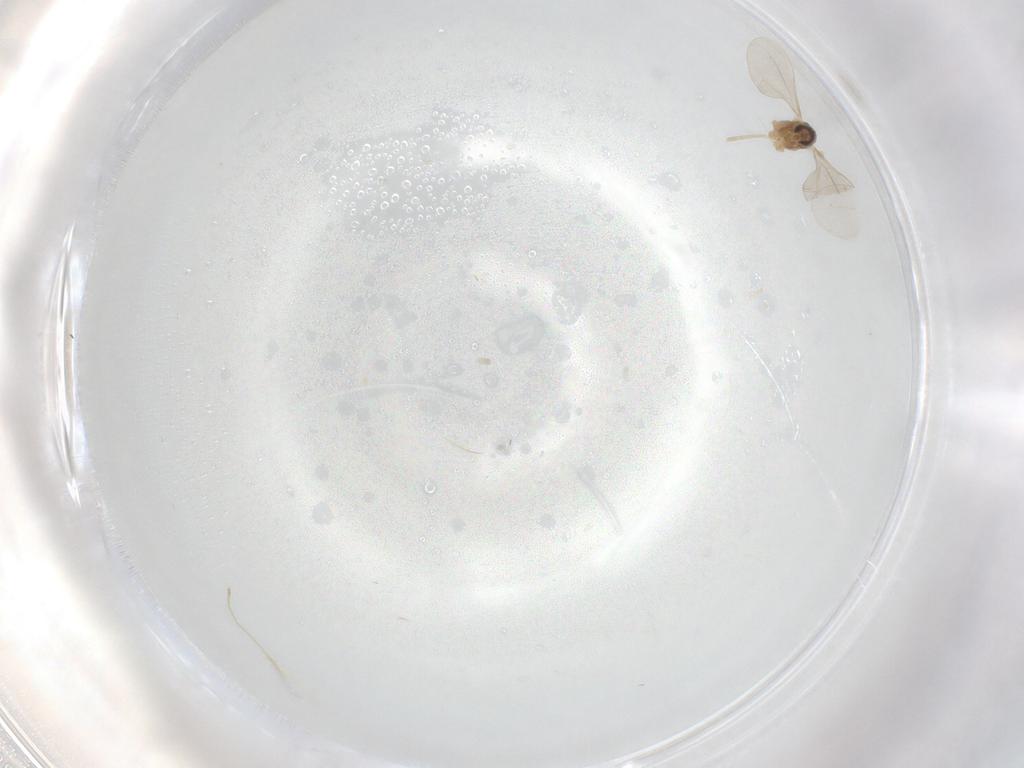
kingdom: Animalia
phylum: Arthropoda
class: Insecta
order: Diptera
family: Chironomidae
